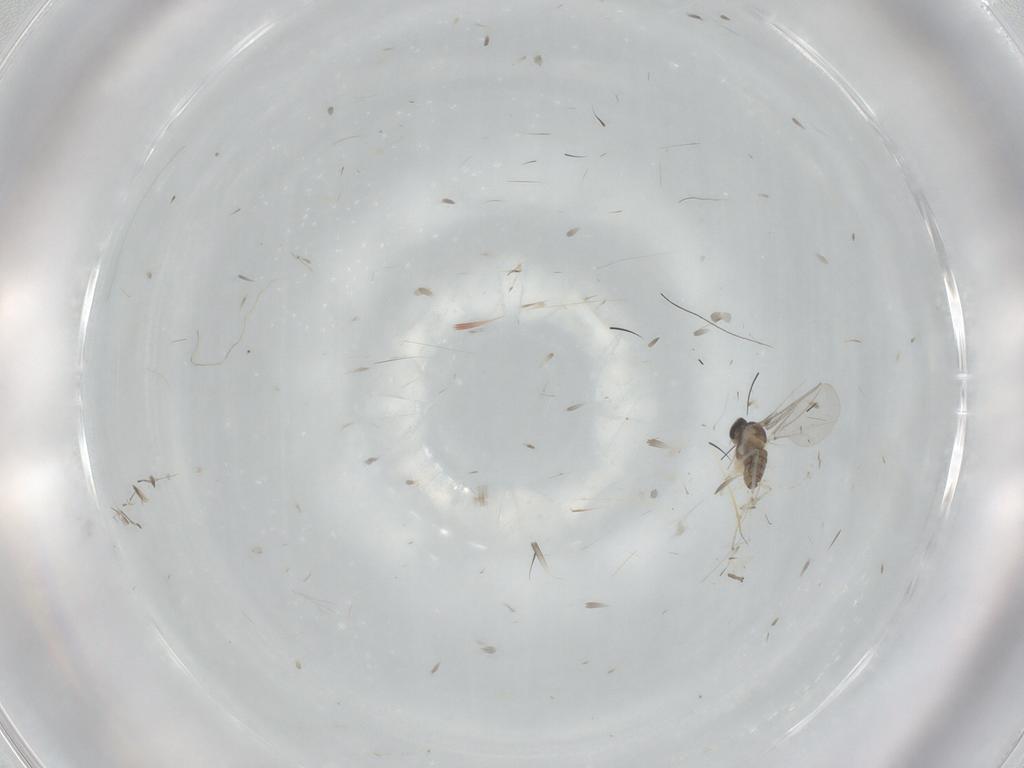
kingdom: Animalia
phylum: Arthropoda
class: Insecta
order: Diptera
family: Cecidomyiidae
